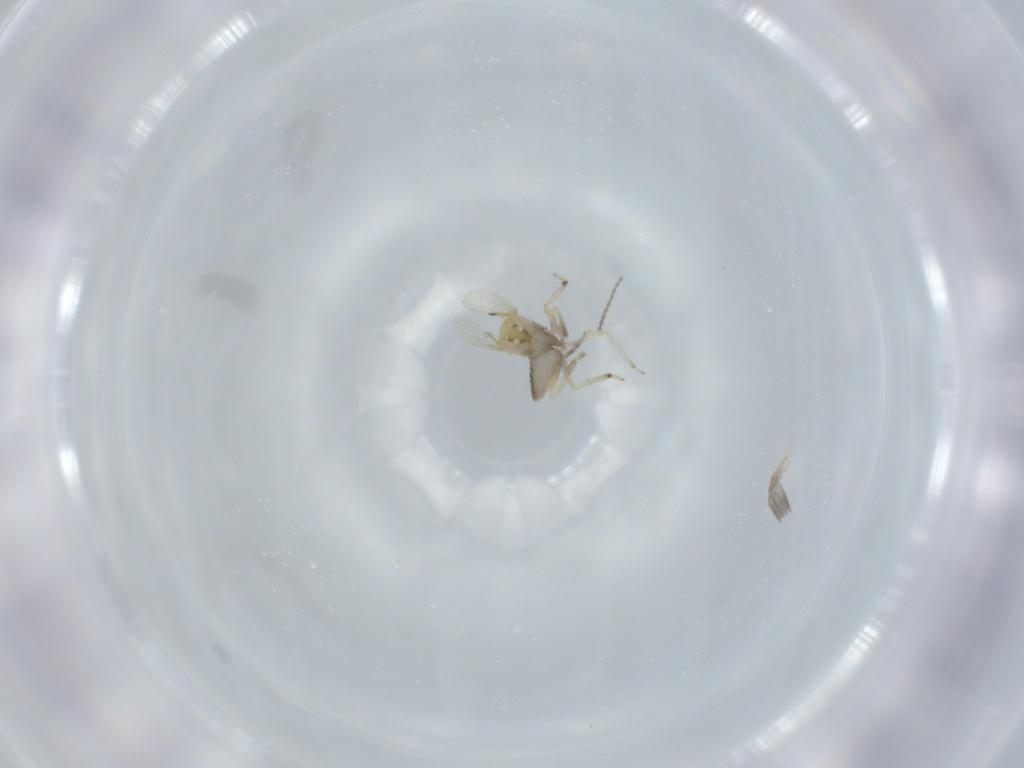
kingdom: Animalia
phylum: Arthropoda
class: Insecta
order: Diptera
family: Cecidomyiidae
